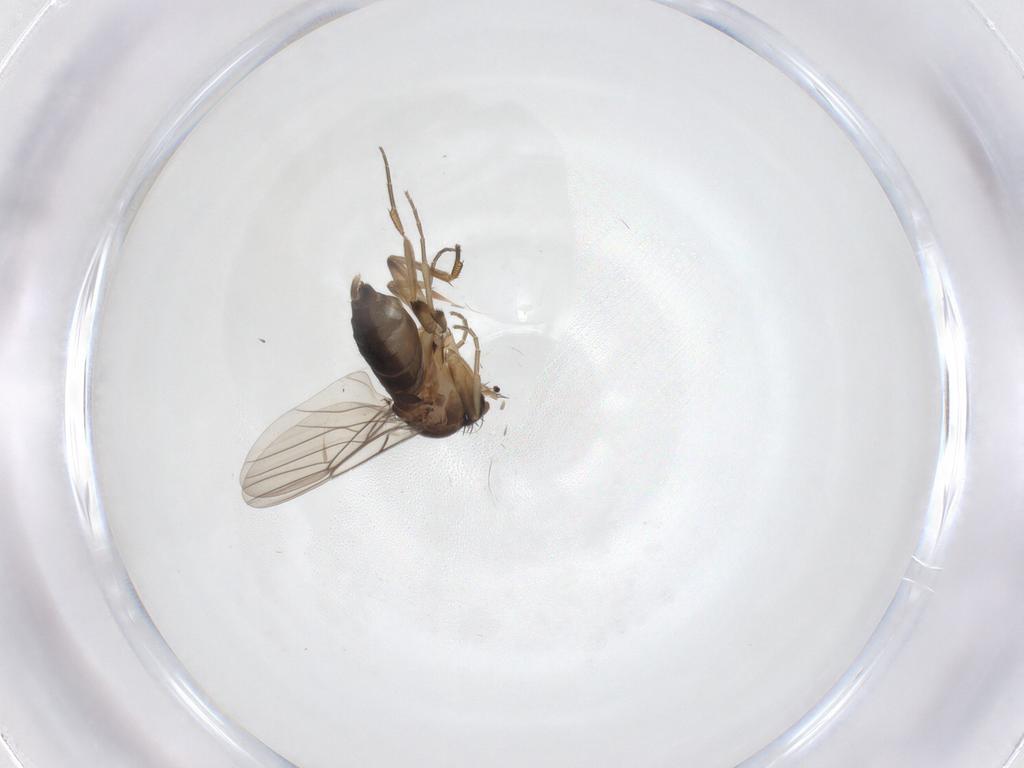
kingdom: Animalia
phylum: Arthropoda
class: Insecta
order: Diptera
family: Phoridae
